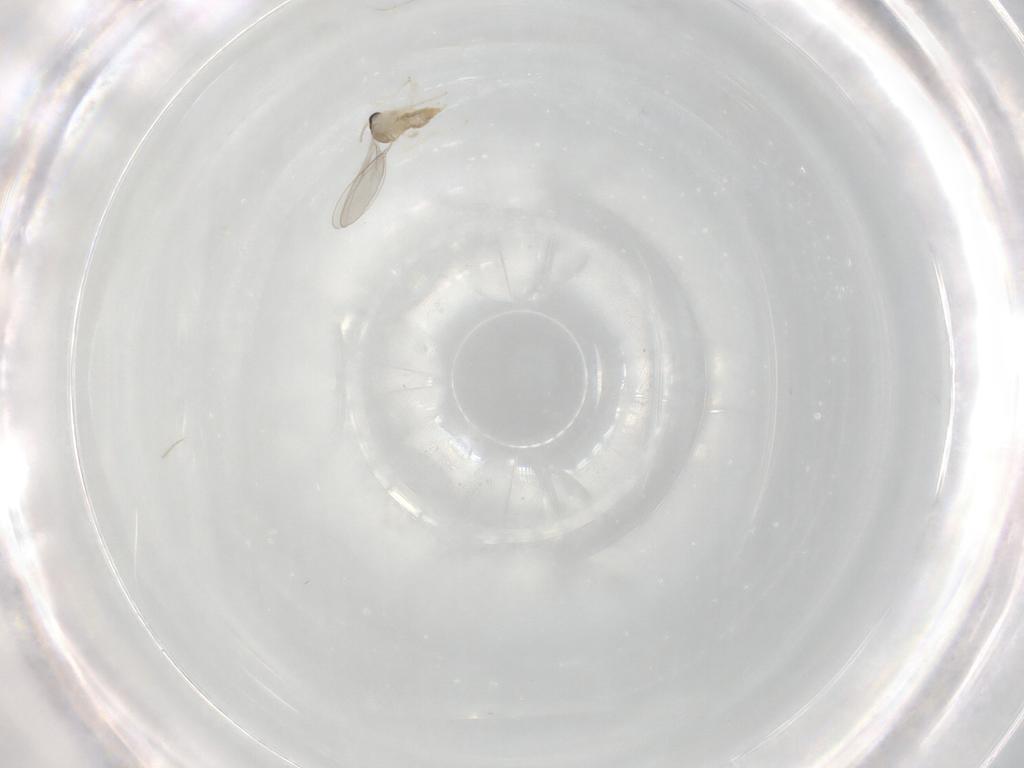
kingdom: Animalia
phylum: Arthropoda
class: Insecta
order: Diptera
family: Cecidomyiidae
